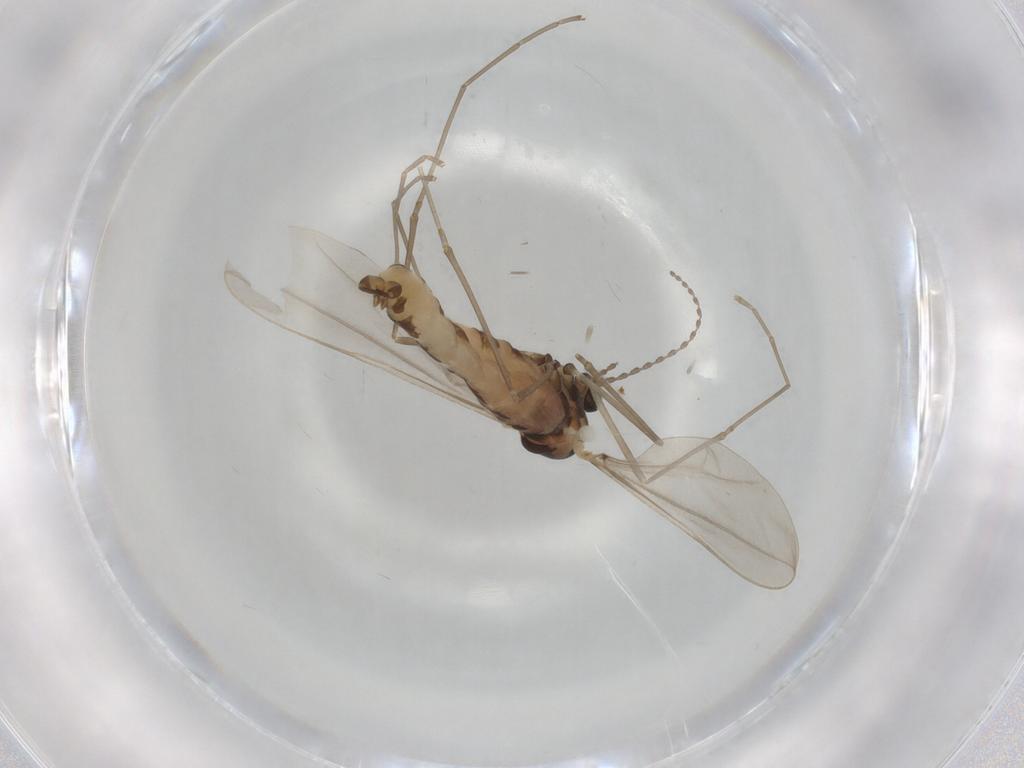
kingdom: Animalia
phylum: Arthropoda
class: Insecta
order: Diptera
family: Cecidomyiidae
